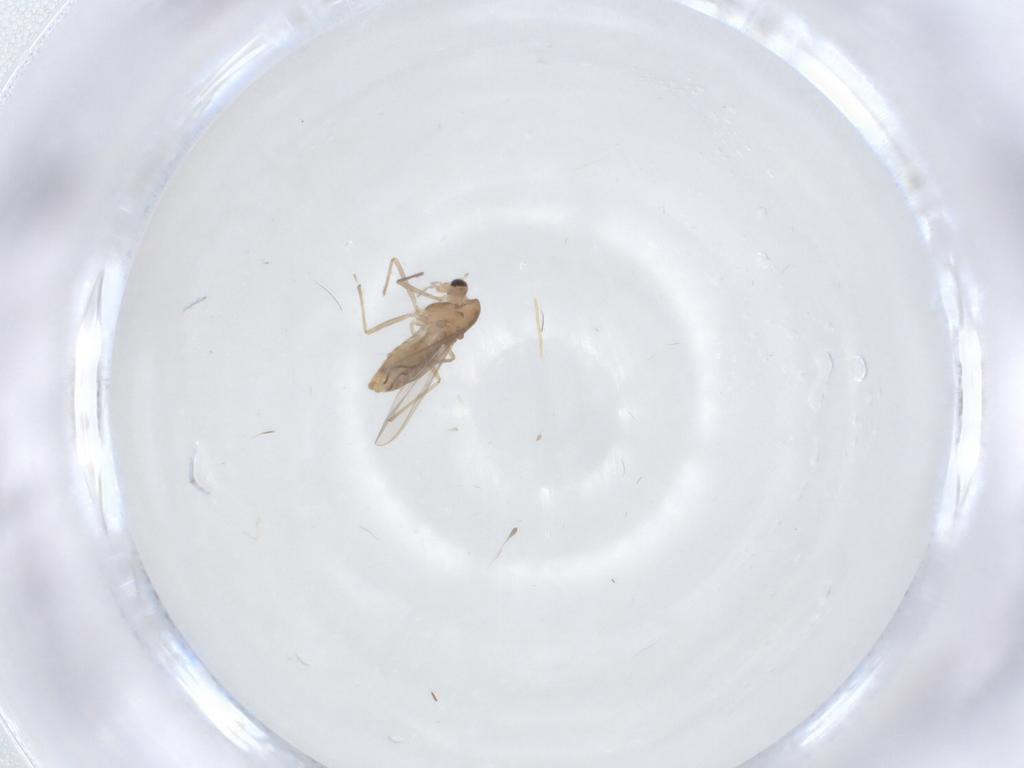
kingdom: Animalia
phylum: Arthropoda
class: Insecta
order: Diptera
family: Chironomidae
